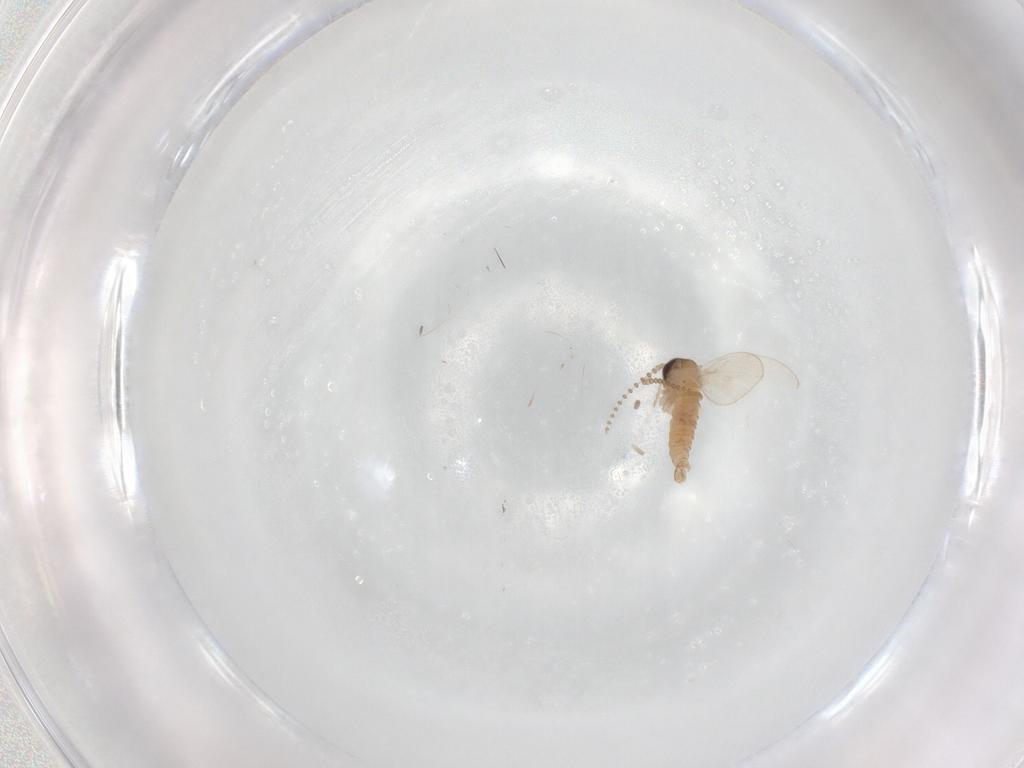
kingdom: Animalia
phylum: Arthropoda
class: Insecta
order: Diptera
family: Psychodidae
